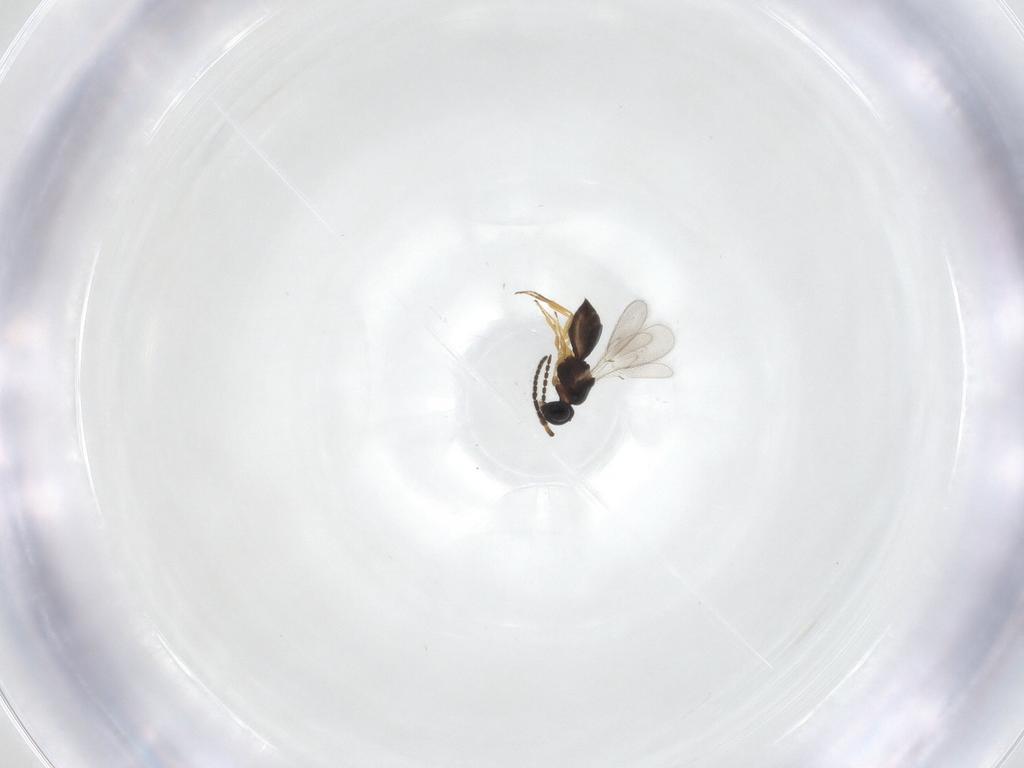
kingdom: Animalia
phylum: Arthropoda
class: Insecta
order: Hymenoptera
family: Scelionidae
